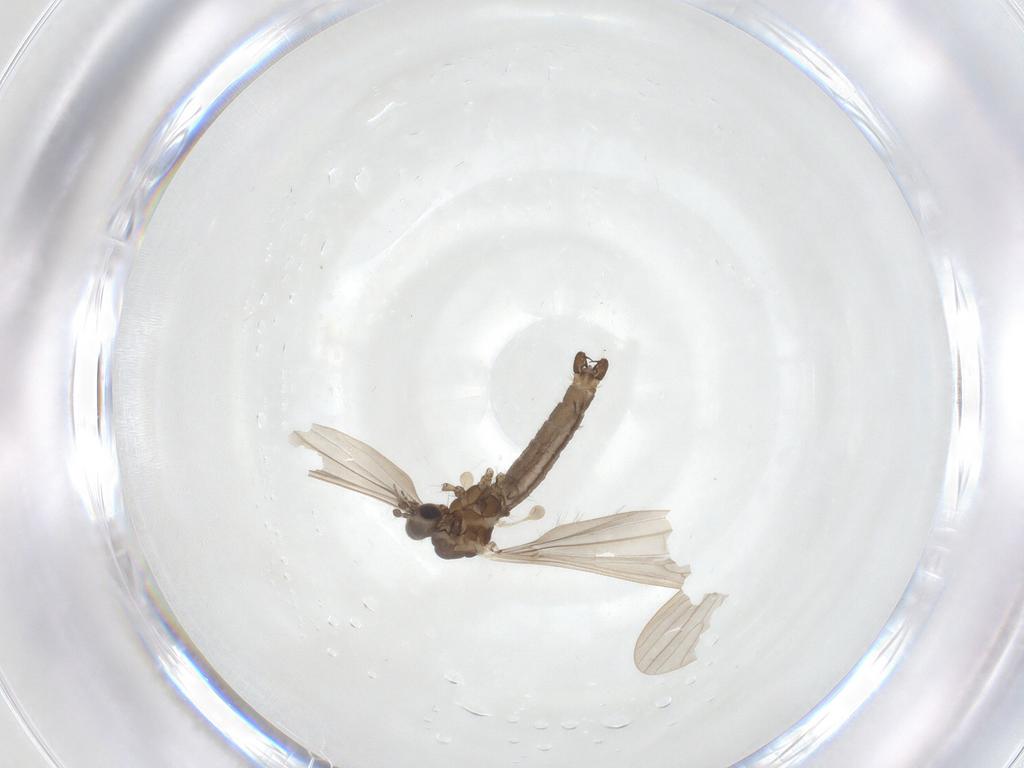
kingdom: Animalia
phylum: Arthropoda
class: Insecta
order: Diptera
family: Limoniidae
